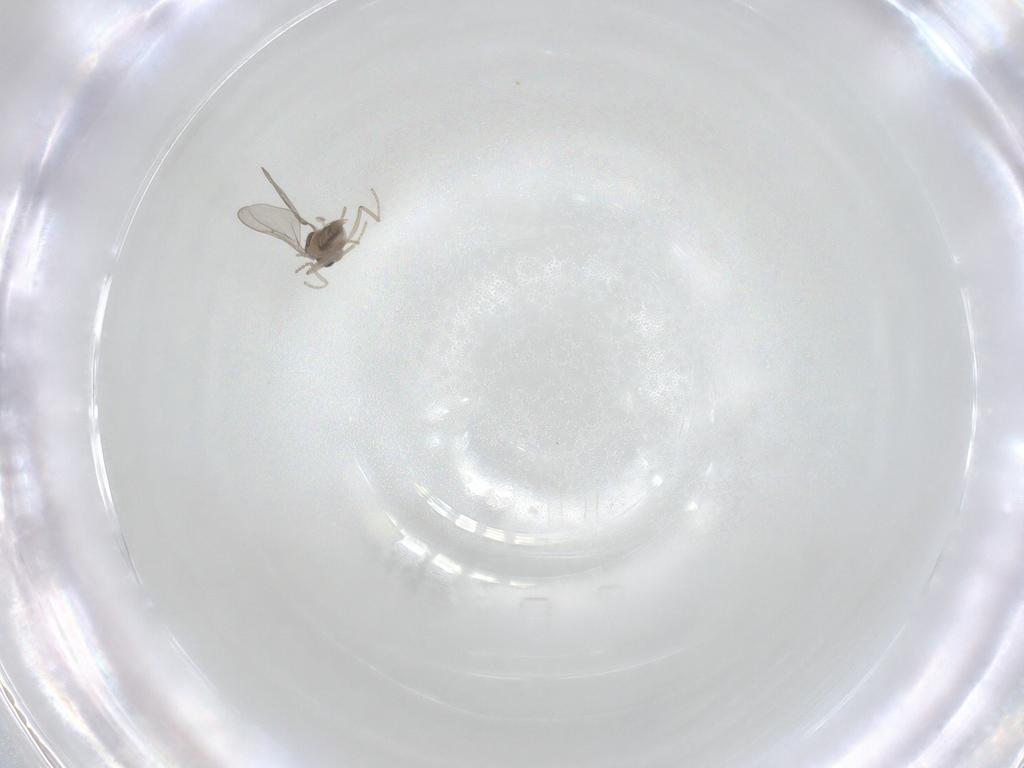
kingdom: Animalia
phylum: Arthropoda
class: Insecta
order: Diptera
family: Cecidomyiidae
